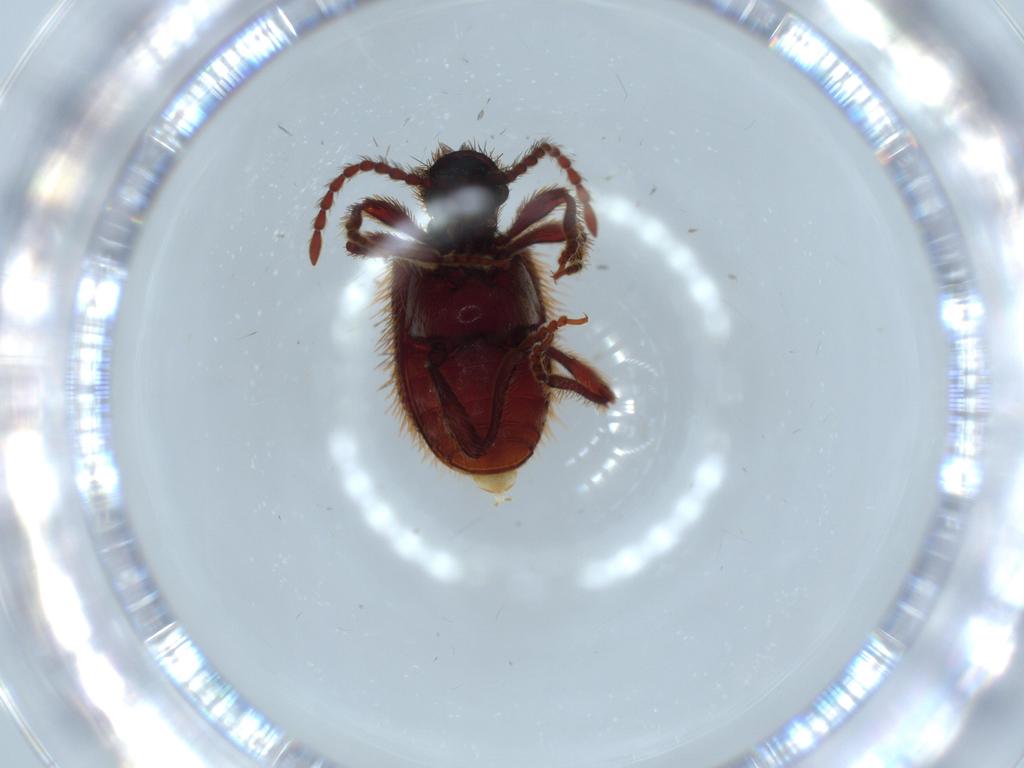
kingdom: Animalia
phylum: Arthropoda
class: Insecta
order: Coleoptera
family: Ptinidae
